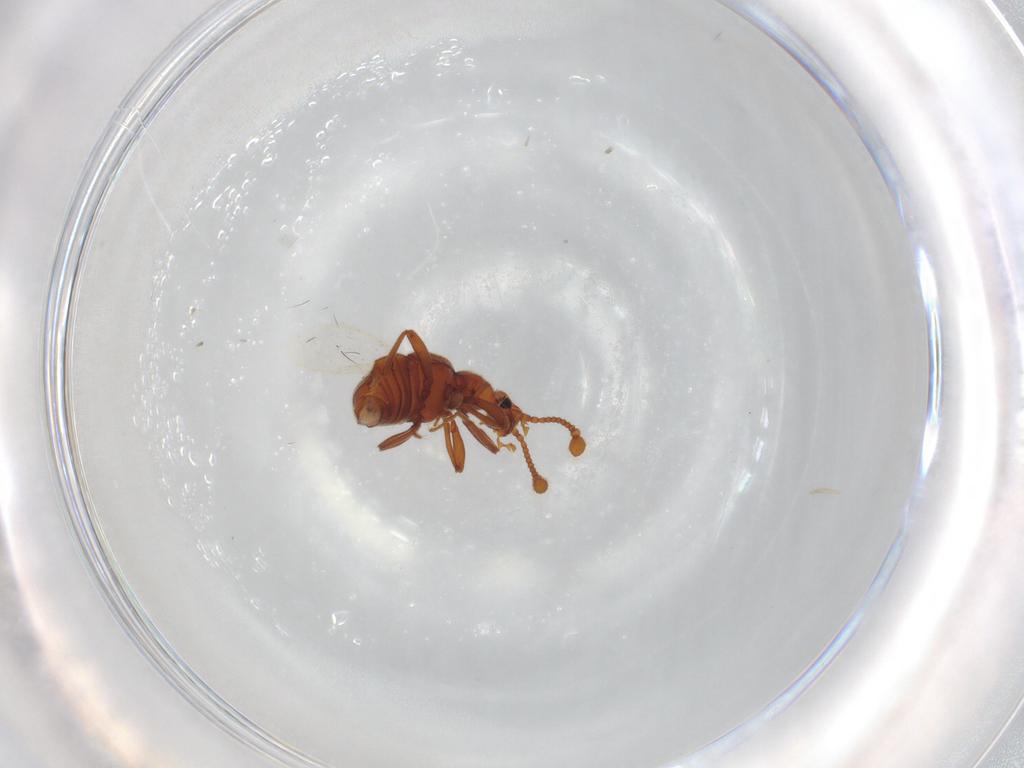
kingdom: Animalia
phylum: Arthropoda
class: Insecta
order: Coleoptera
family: Staphylinidae
